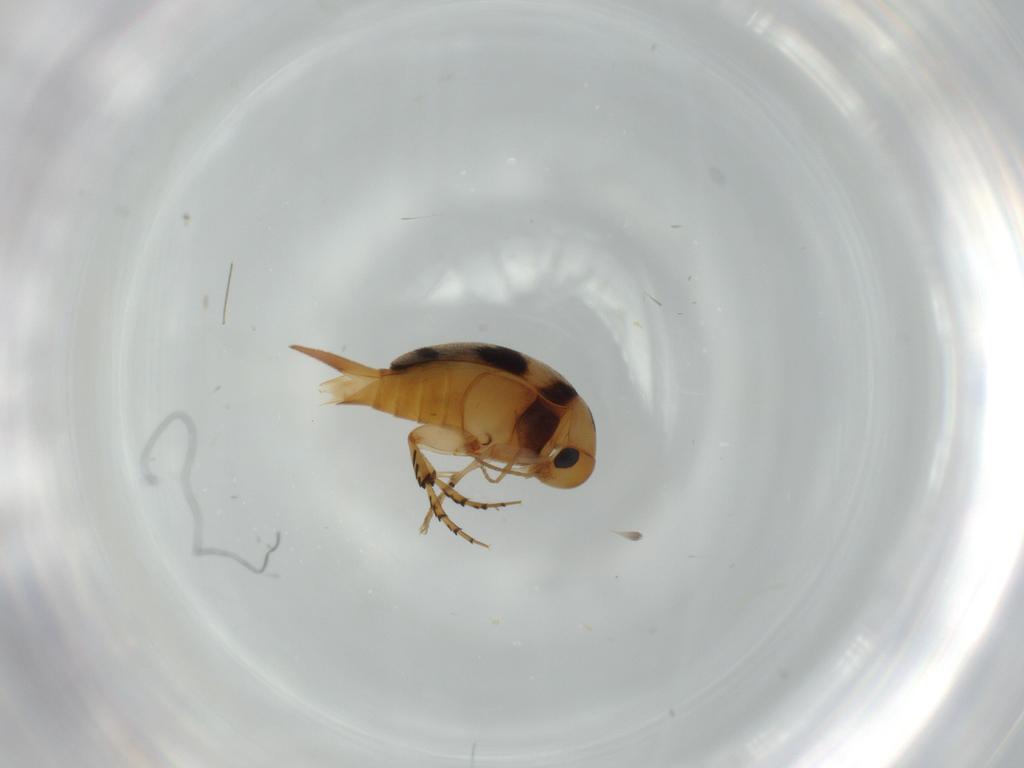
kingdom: Animalia
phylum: Arthropoda
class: Insecta
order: Coleoptera
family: Mordellidae
